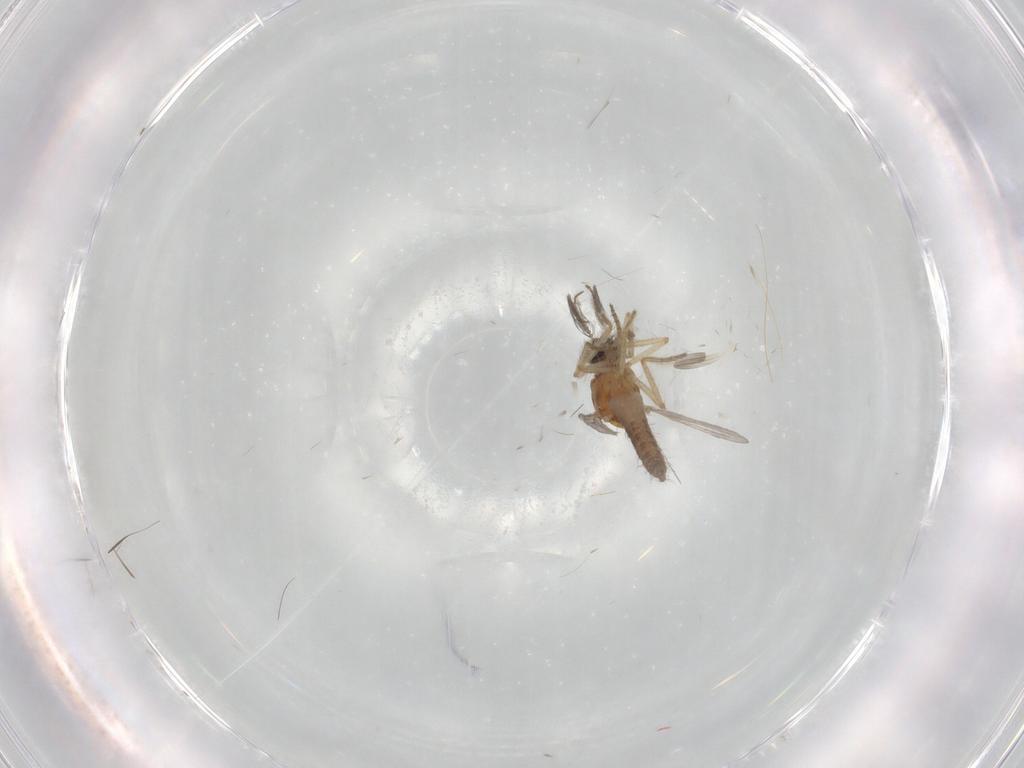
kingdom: Animalia
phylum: Arthropoda
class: Insecta
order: Diptera
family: Ceratopogonidae
